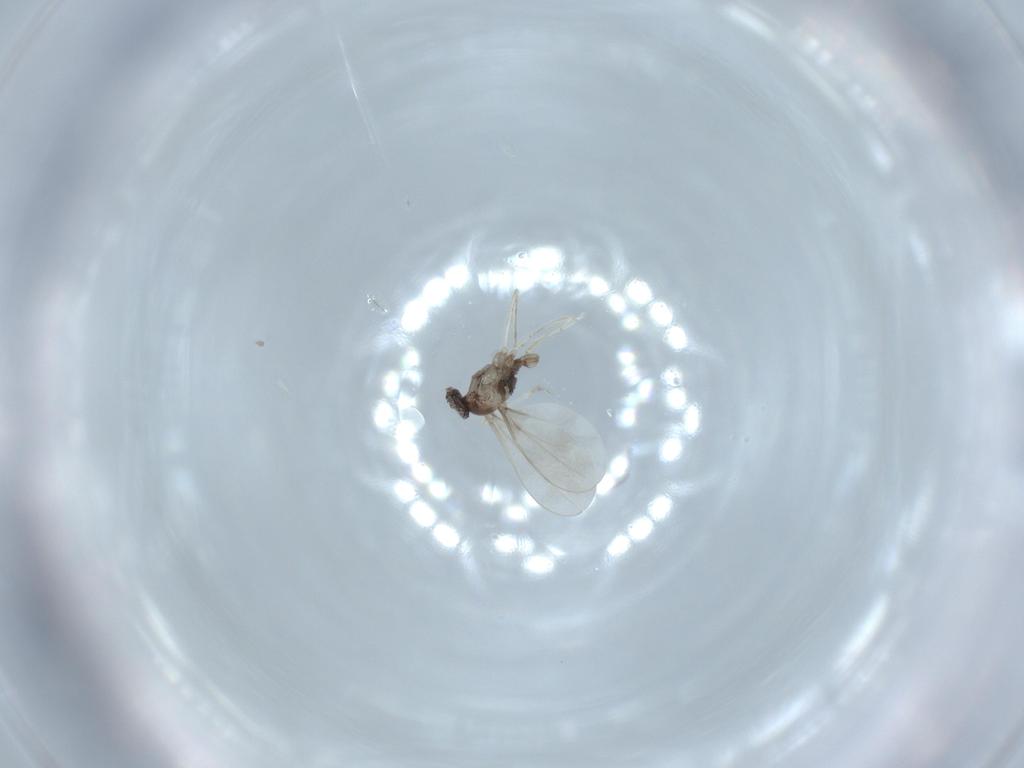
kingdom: Animalia
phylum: Arthropoda
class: Insecta
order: Diptera
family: Cecidomyiidae
